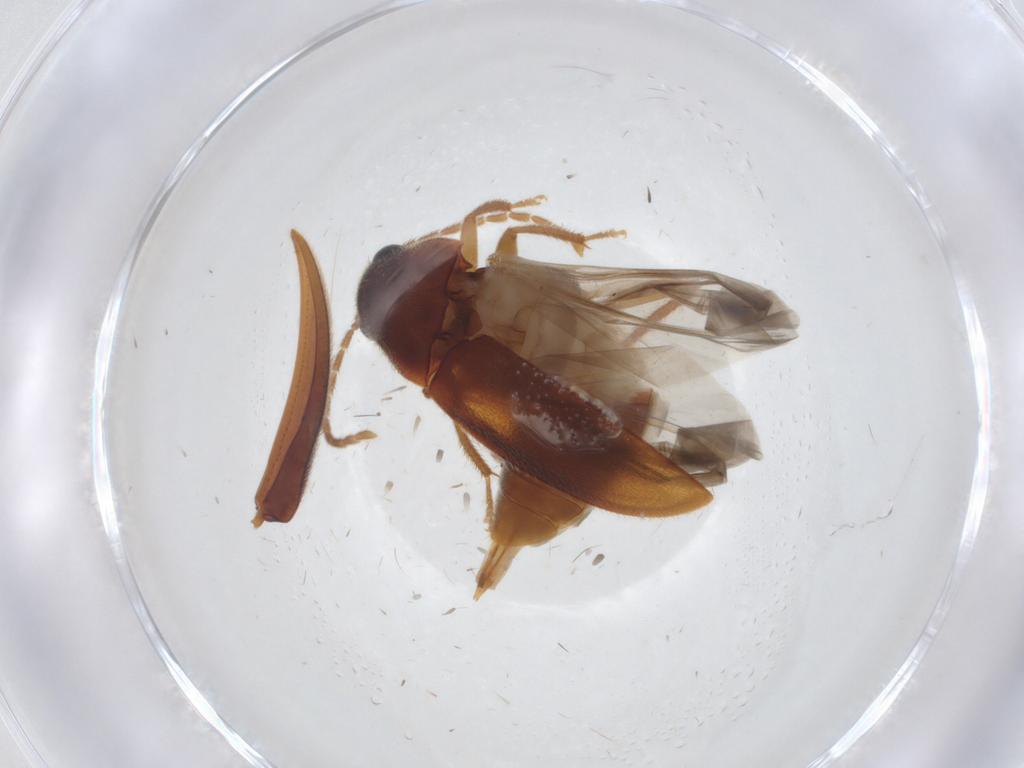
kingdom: Animalia
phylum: Arthropoda
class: Insecta
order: Coleoptera
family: Ptilodactylidae
